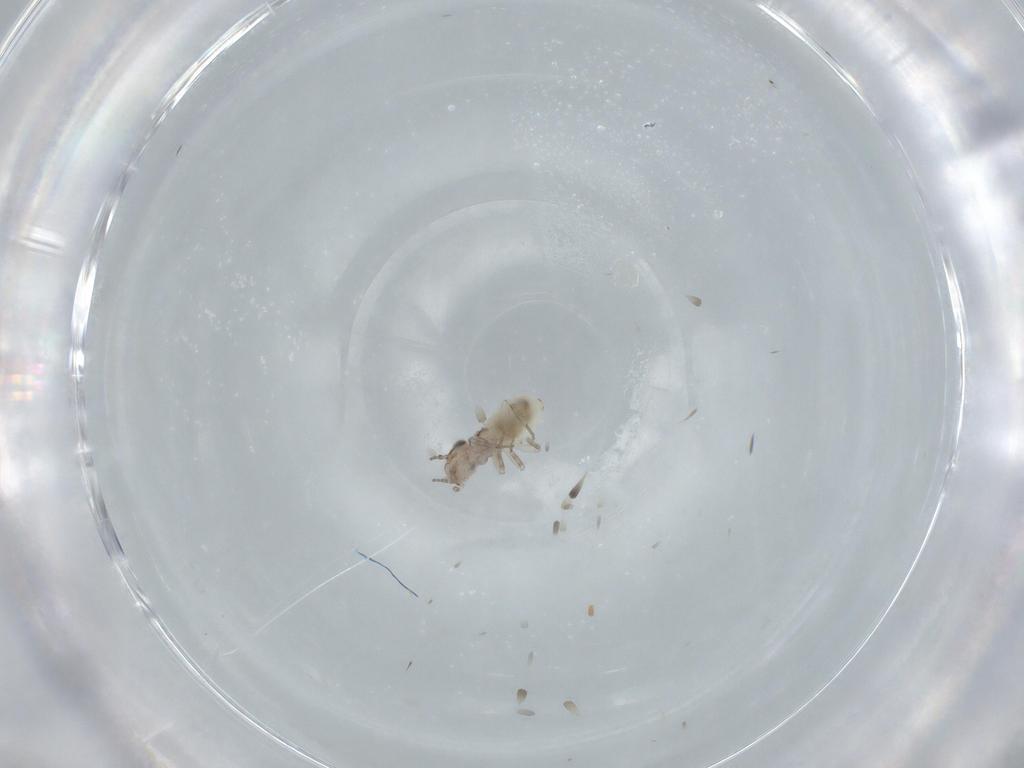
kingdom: Animalia
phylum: Arthropoda
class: Insecta
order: Psocodea
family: Lepidopsocidae
